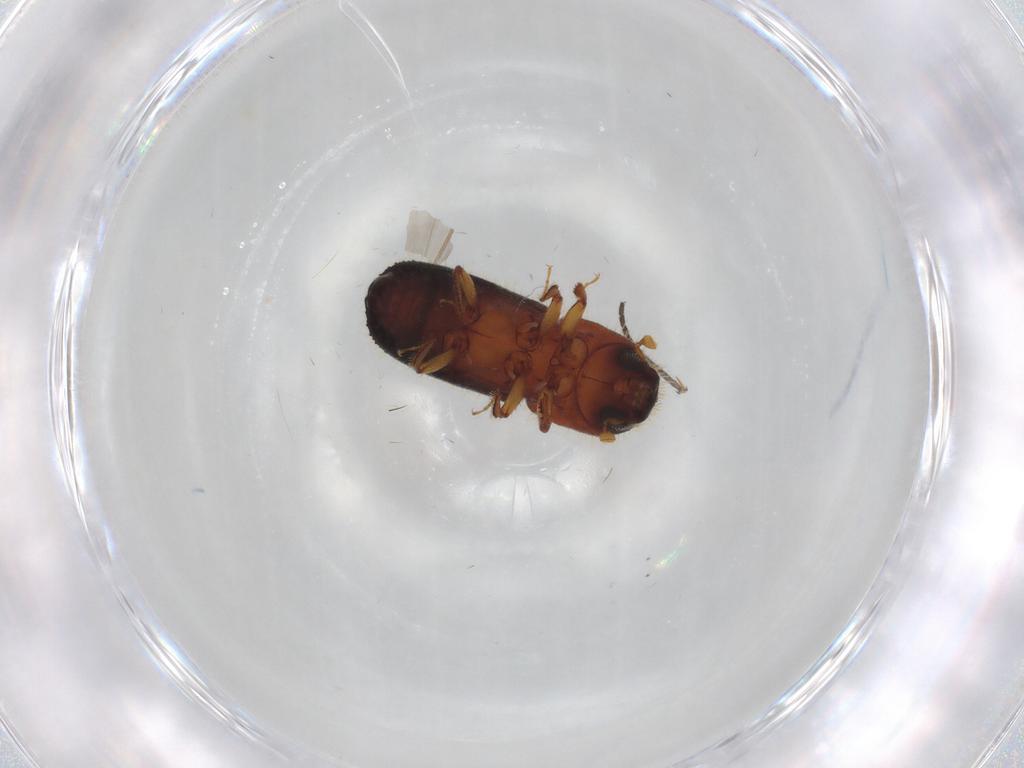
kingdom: Animalia
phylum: Arthropoda
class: Insecta
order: Coleoptera
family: Curculionidae
